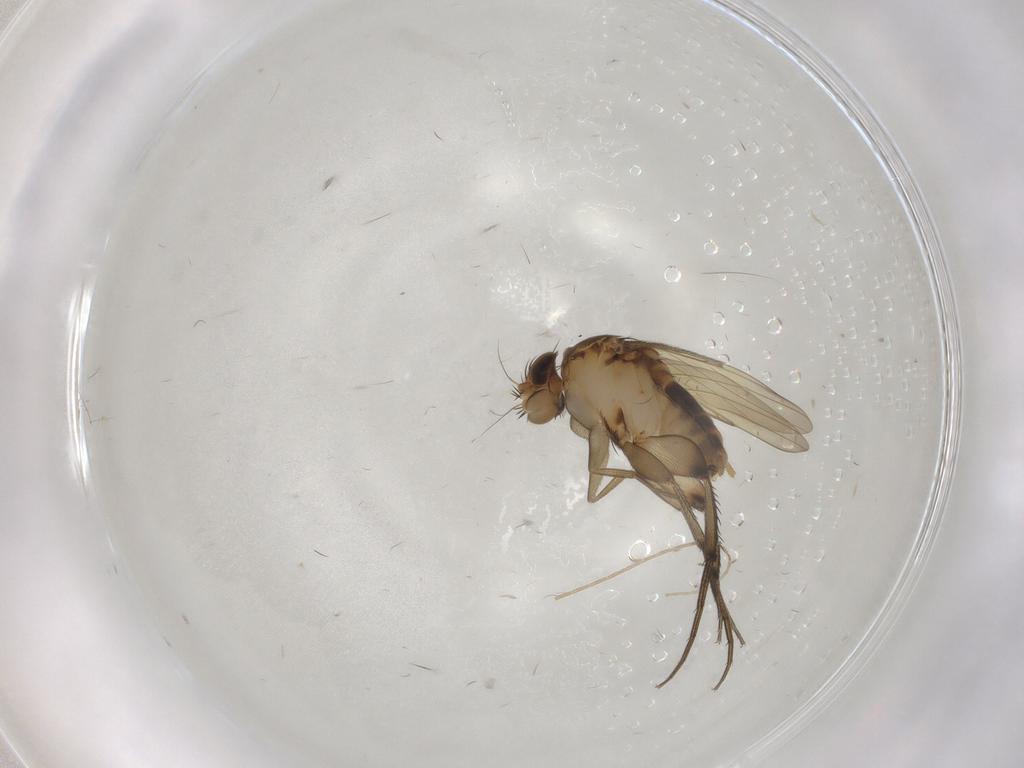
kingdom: Animalia
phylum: Arthropoda
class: Insecta
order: Diptera
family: Phoridae
